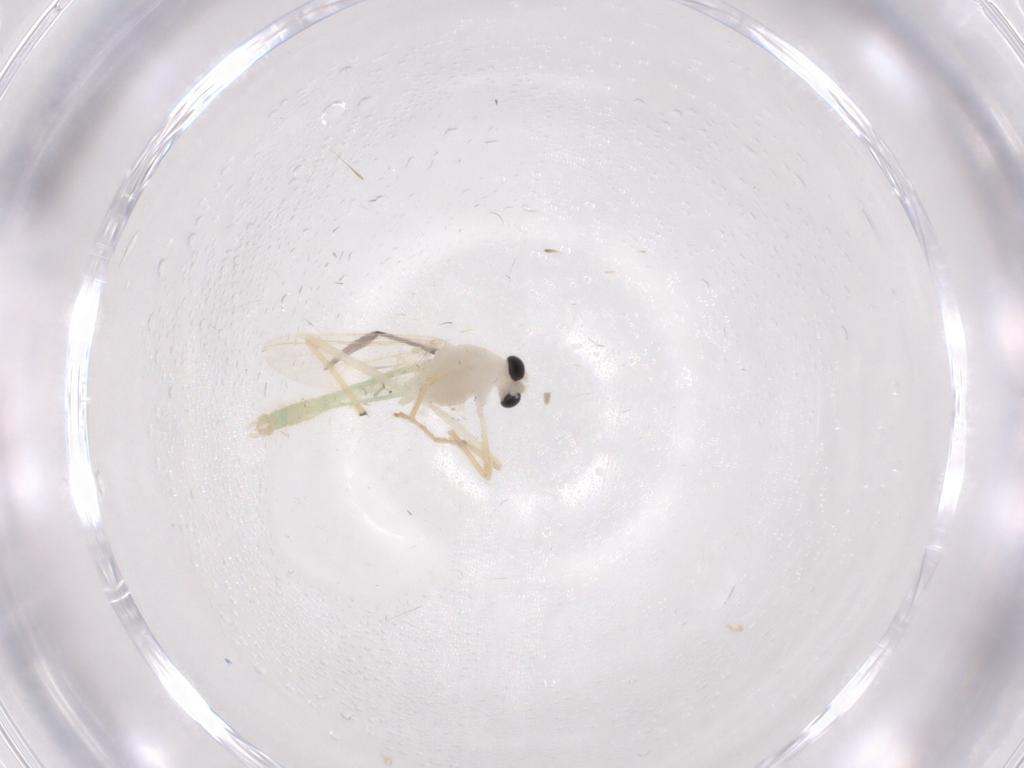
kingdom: Animalia
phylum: Arthropoda
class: Insecta
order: Diptera
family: Chironomidae
